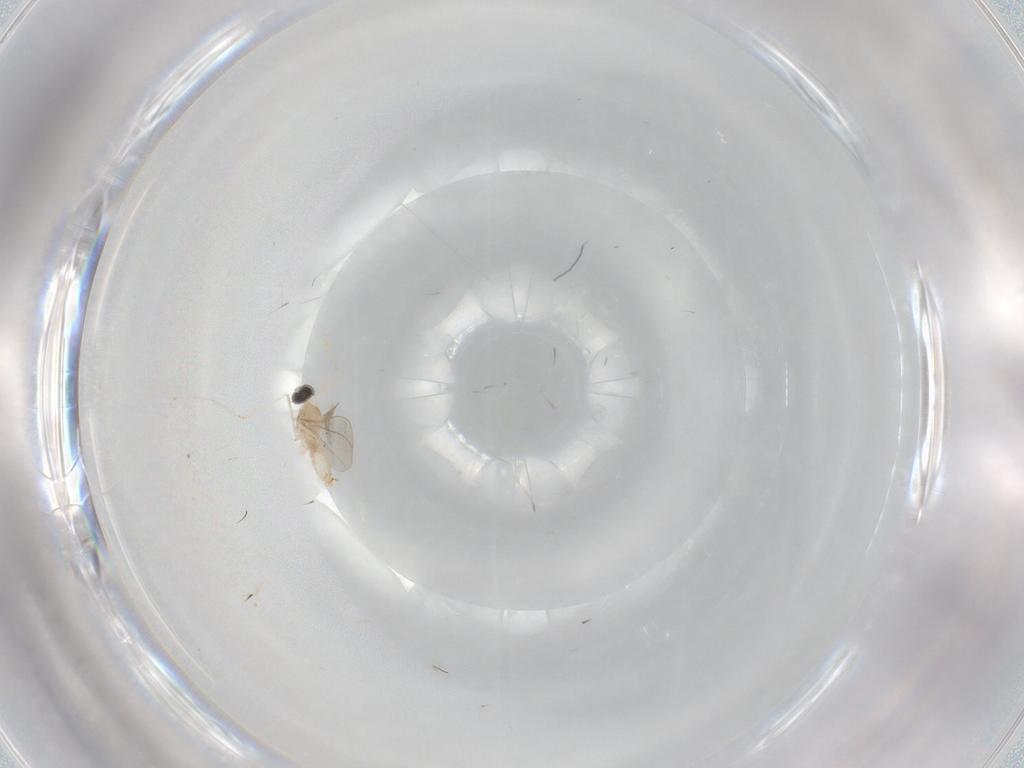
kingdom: Animalia
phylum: Arthropoda
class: Insecta
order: Diptera
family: Cecidomyiidae
